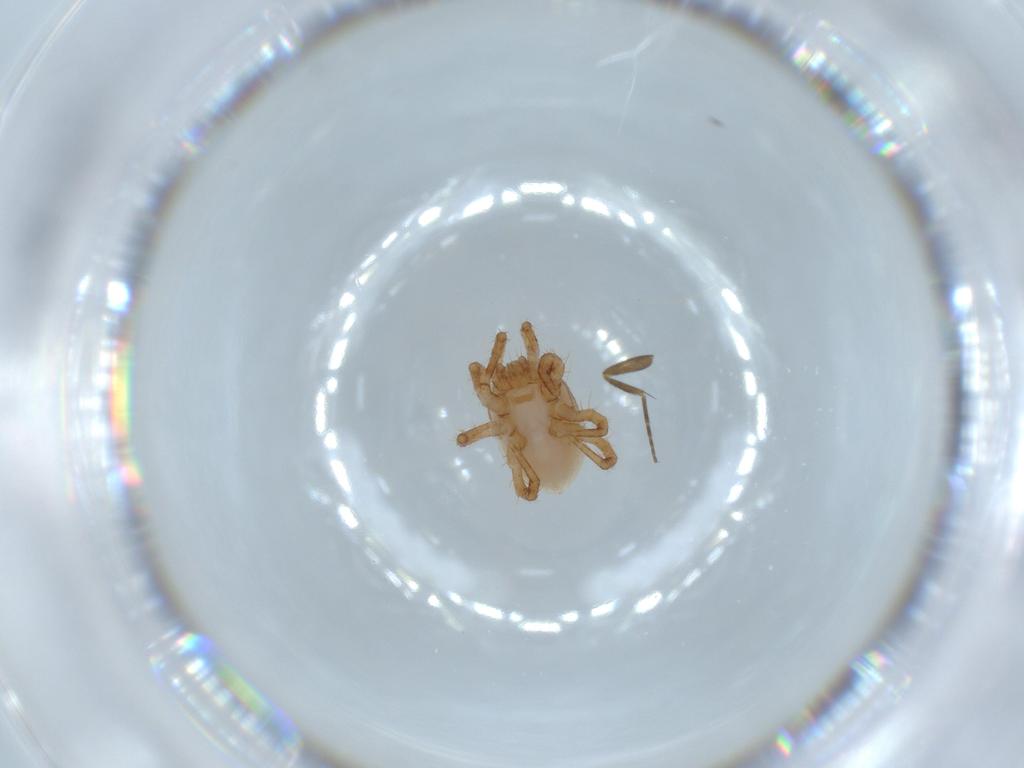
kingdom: Animalia
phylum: Arthropoda
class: Arachnida
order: Mesostigmata
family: Parasitidae
